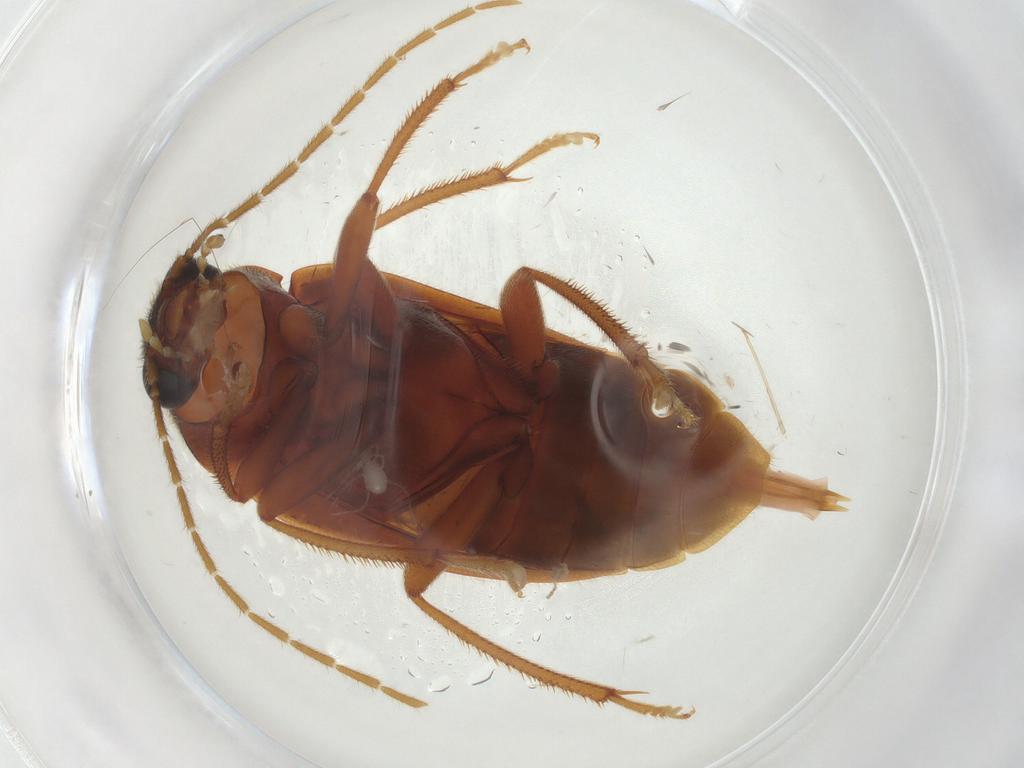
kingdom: Animalia
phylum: Arthropoda
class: Insecta
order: Coleoptera
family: Ptilodactylidae
